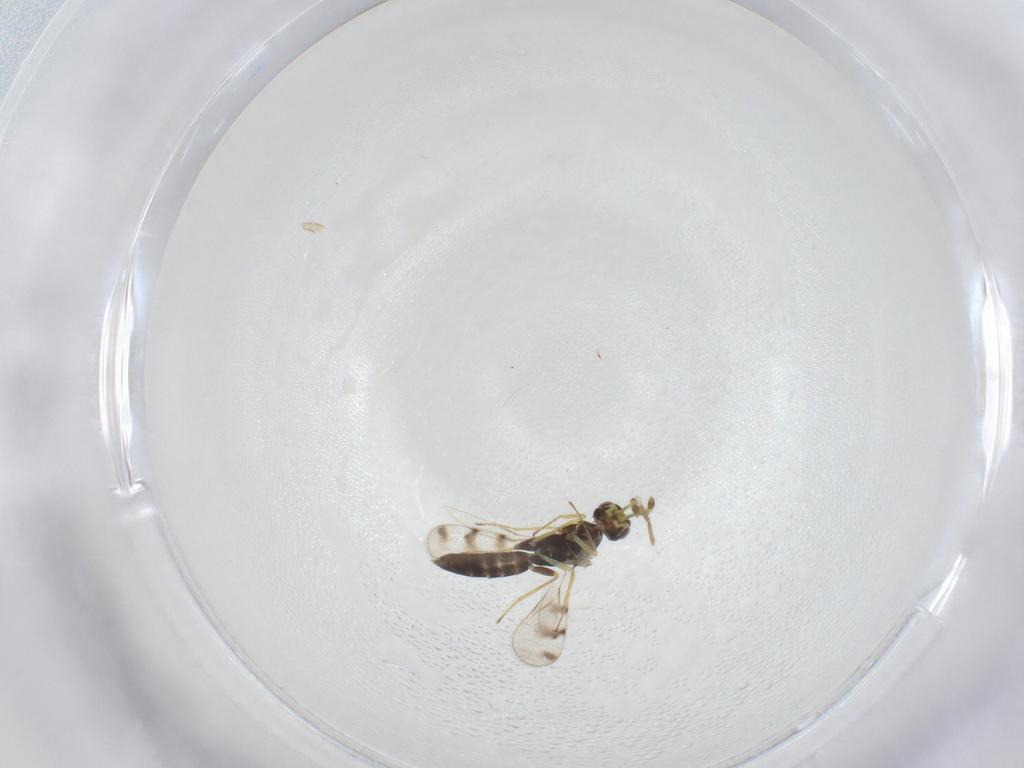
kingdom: Animalia
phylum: Arthropoda
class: Insecta
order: Hymenoptera
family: Eulophidae
